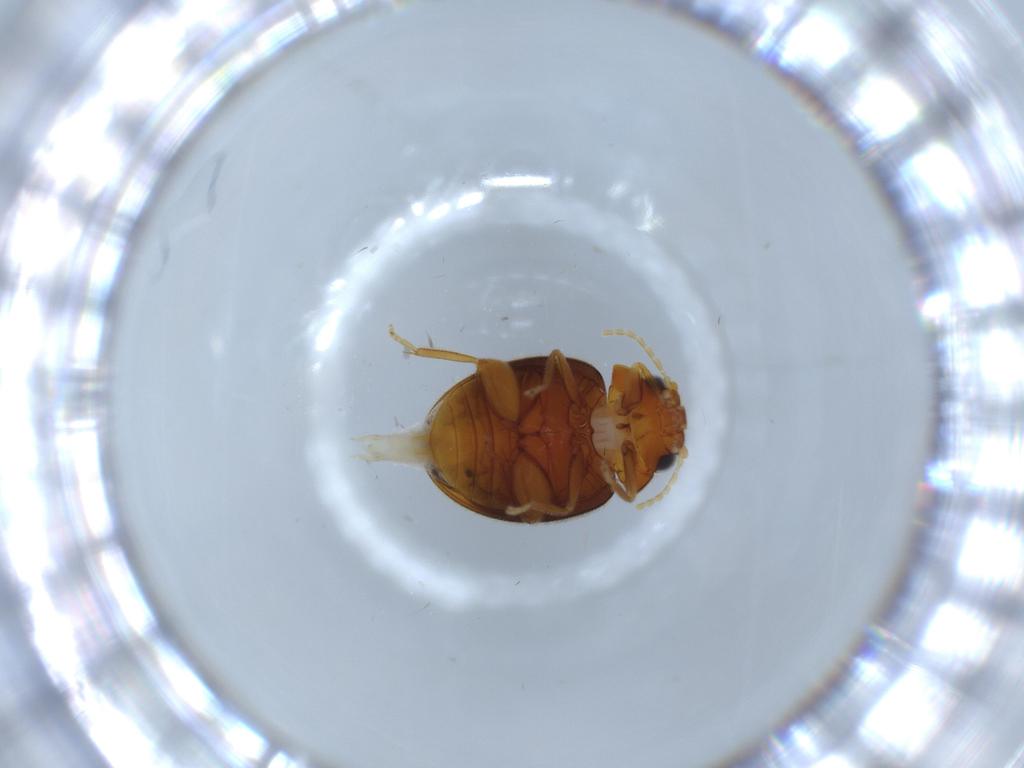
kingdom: Animalia
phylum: Arthropoda
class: Insecta
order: Coleoptera
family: Scirtidae
